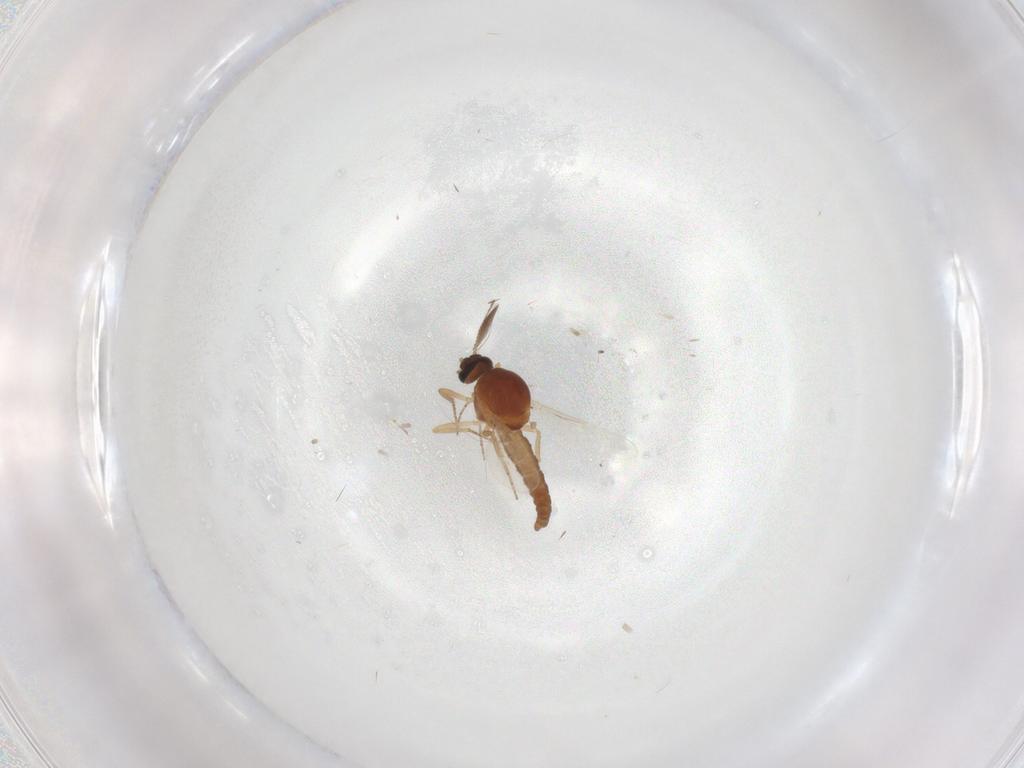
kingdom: Animalia
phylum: Arthropoda
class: Insecta
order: Diptera
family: Ceratopogonidae
